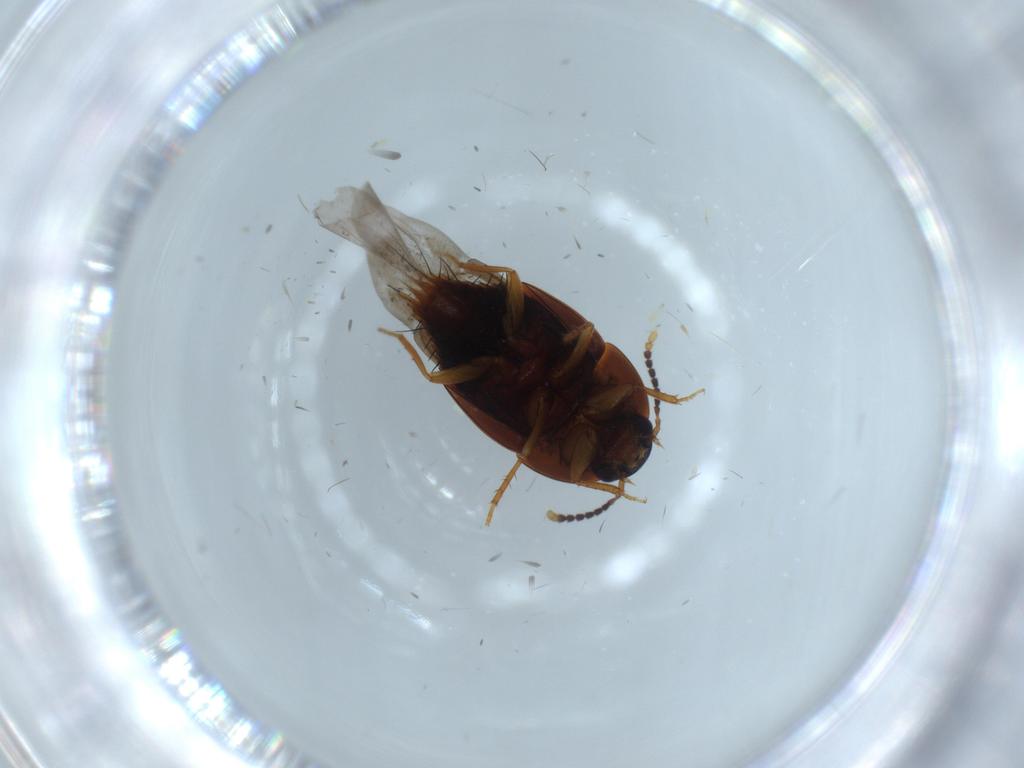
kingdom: Animalia
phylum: Arthropoda
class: Insecta
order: Coleoptera
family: Staphylinidae
